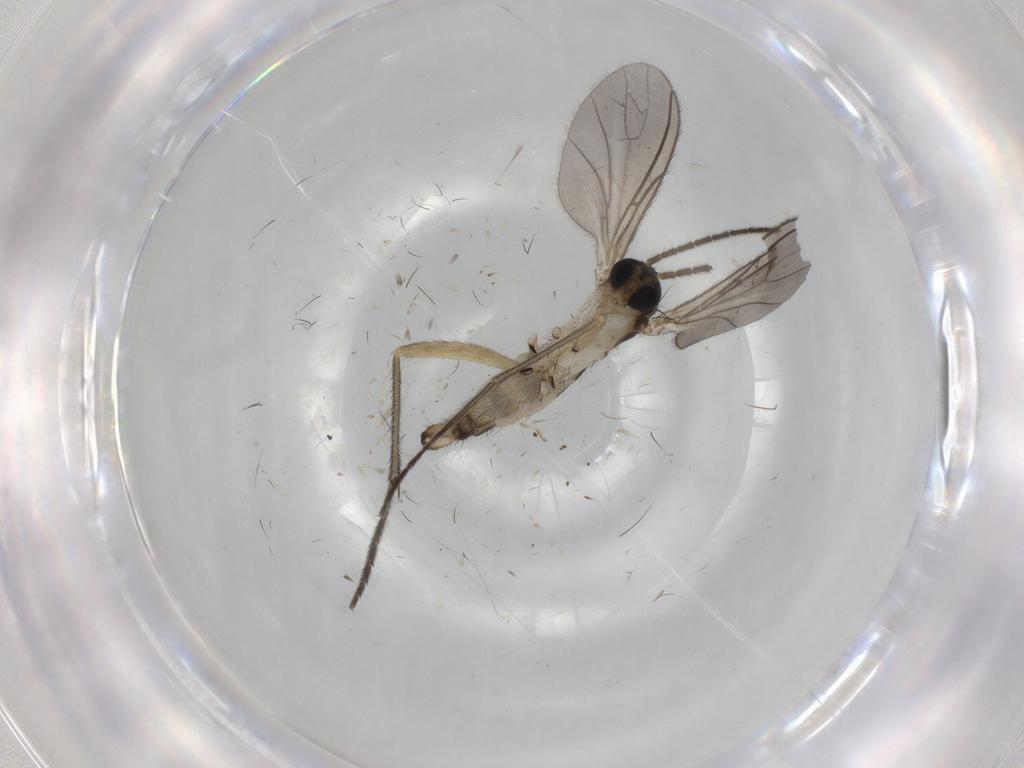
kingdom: Animalia
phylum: Arthropoda
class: Insecta
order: Diptera
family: Sciaridae
